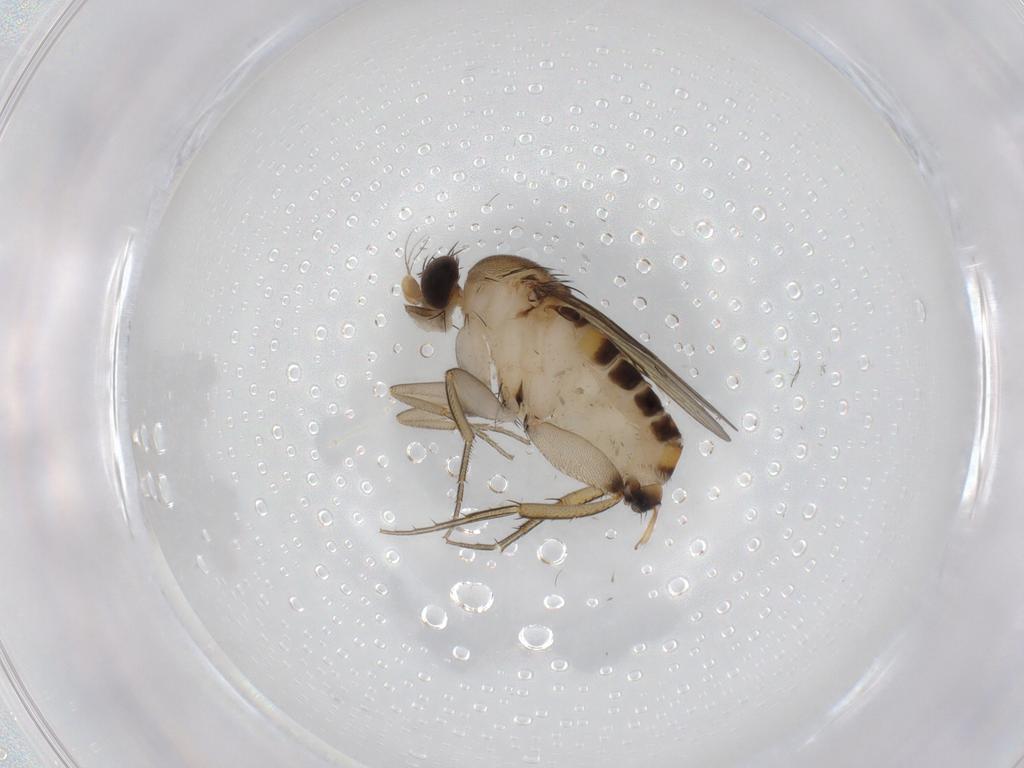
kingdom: Animalia
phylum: Arthropoda
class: Insecta
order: Diptera
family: Phoridae
